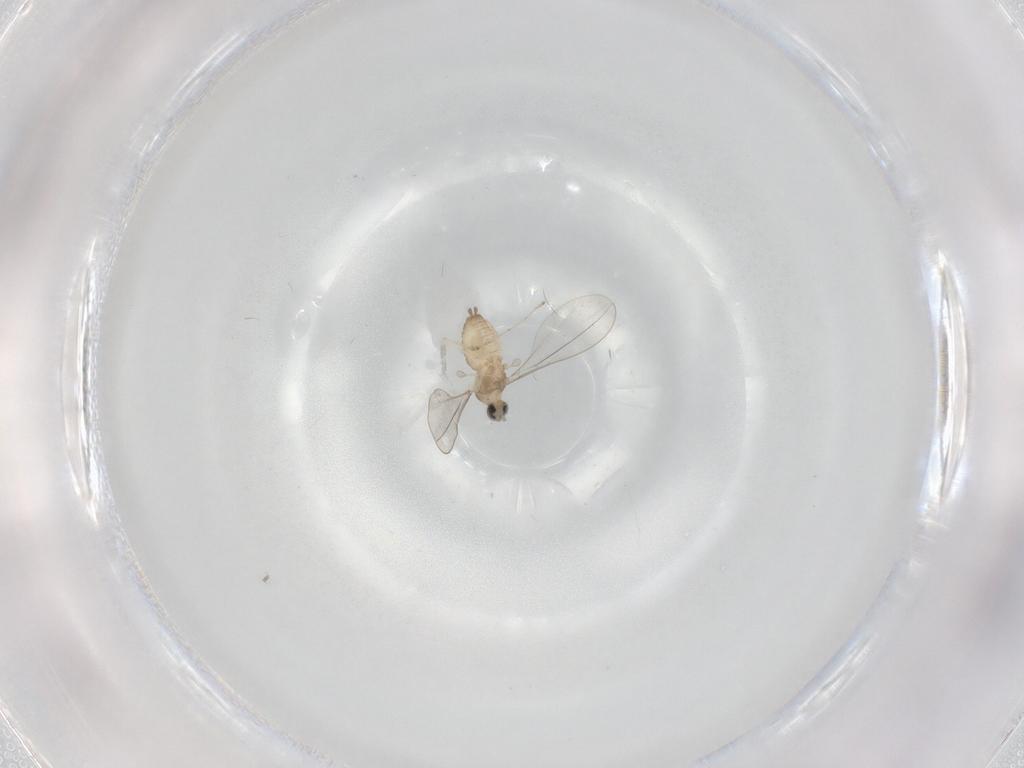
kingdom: Animalia
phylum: Arthropoda
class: Insecta
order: Diptera
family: Cecidomyiidae
